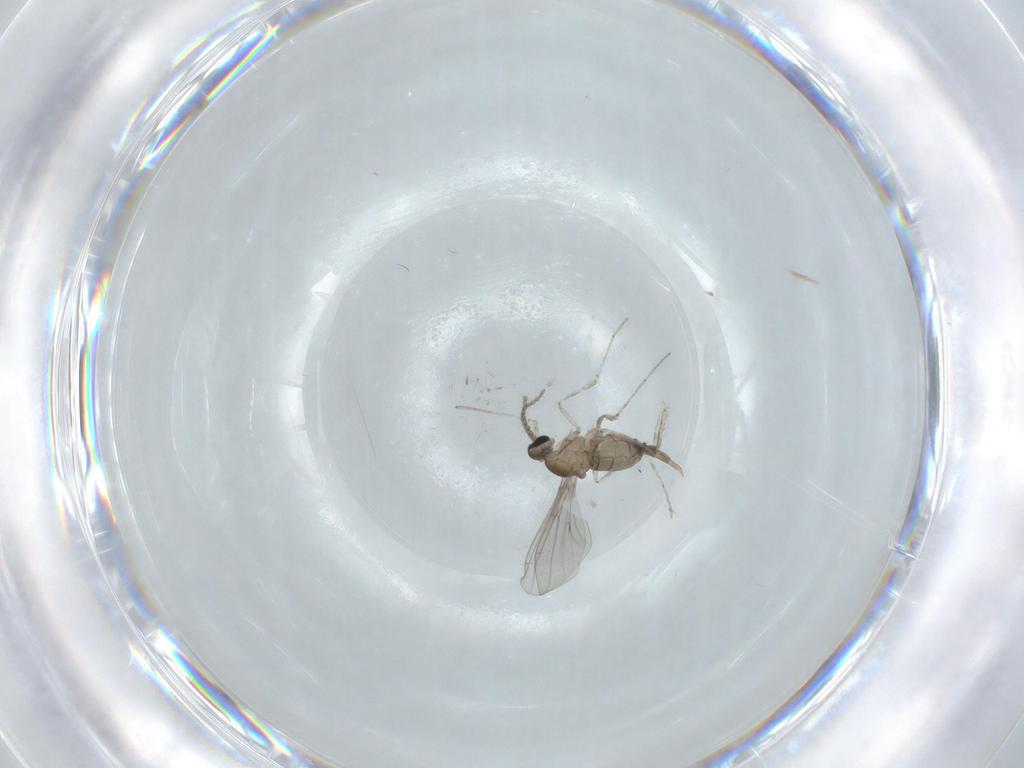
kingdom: Animalia
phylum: Arthropoda
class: Insecta
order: Diptera
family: Cecidomyiidae
